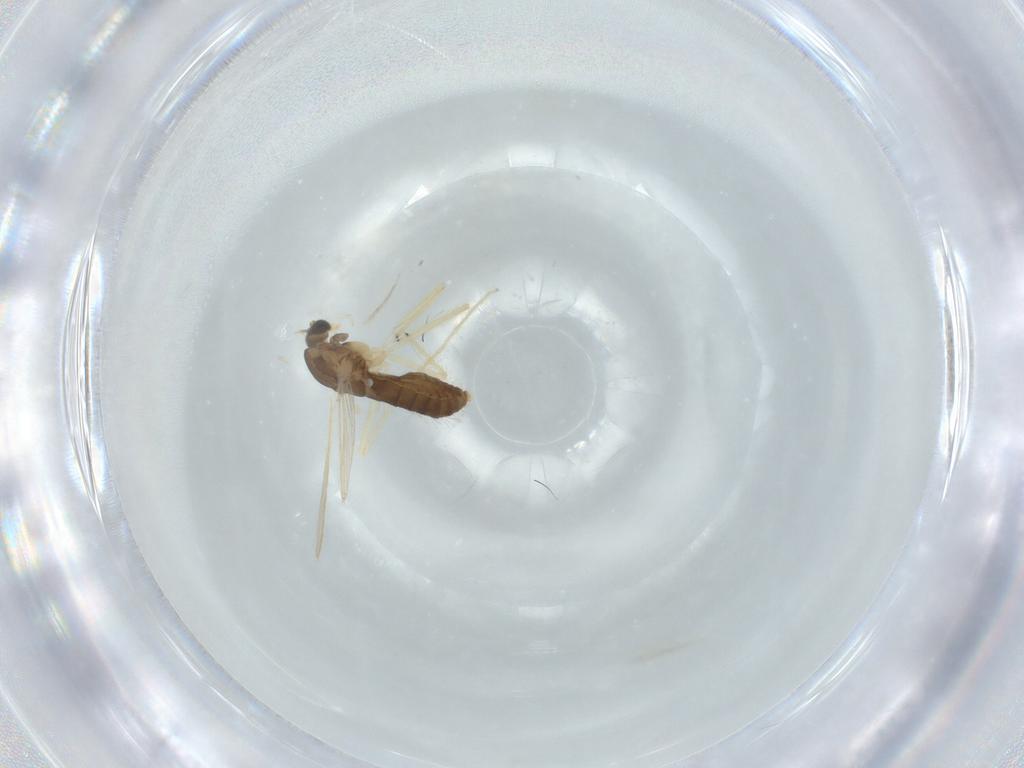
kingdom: Animalia
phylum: Arthropoda
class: Insecta
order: Diptera
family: Chironomidae
